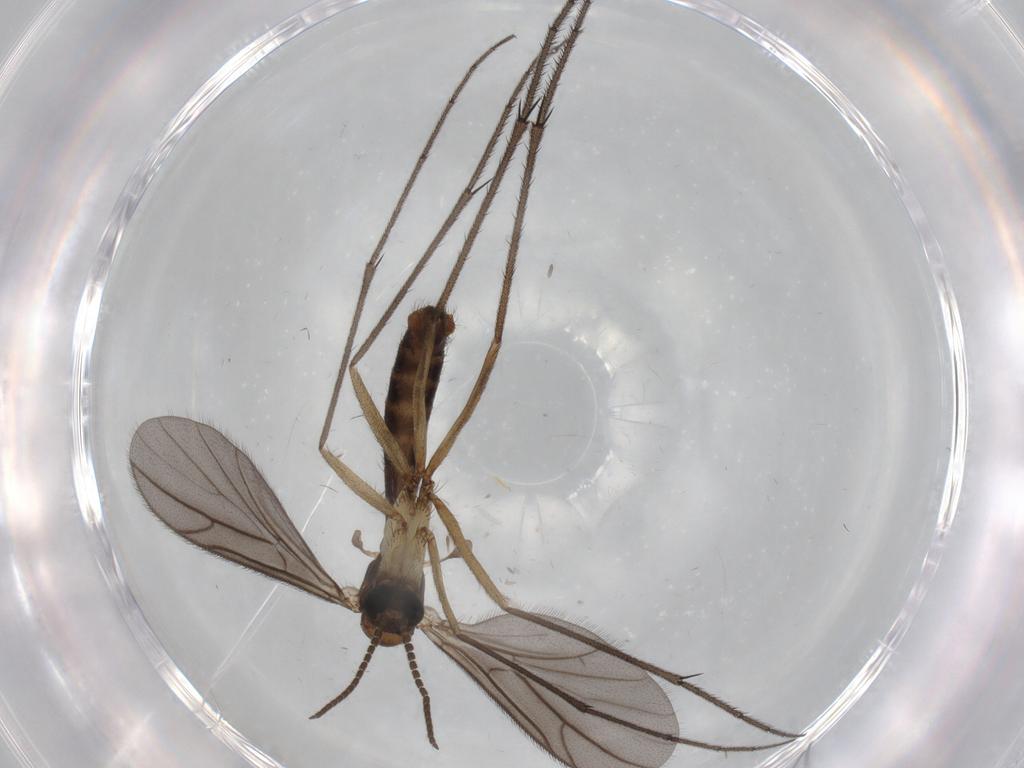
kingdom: Animalia
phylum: Arthropoda
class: Insecta
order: Diptera
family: Ditomyiidae
